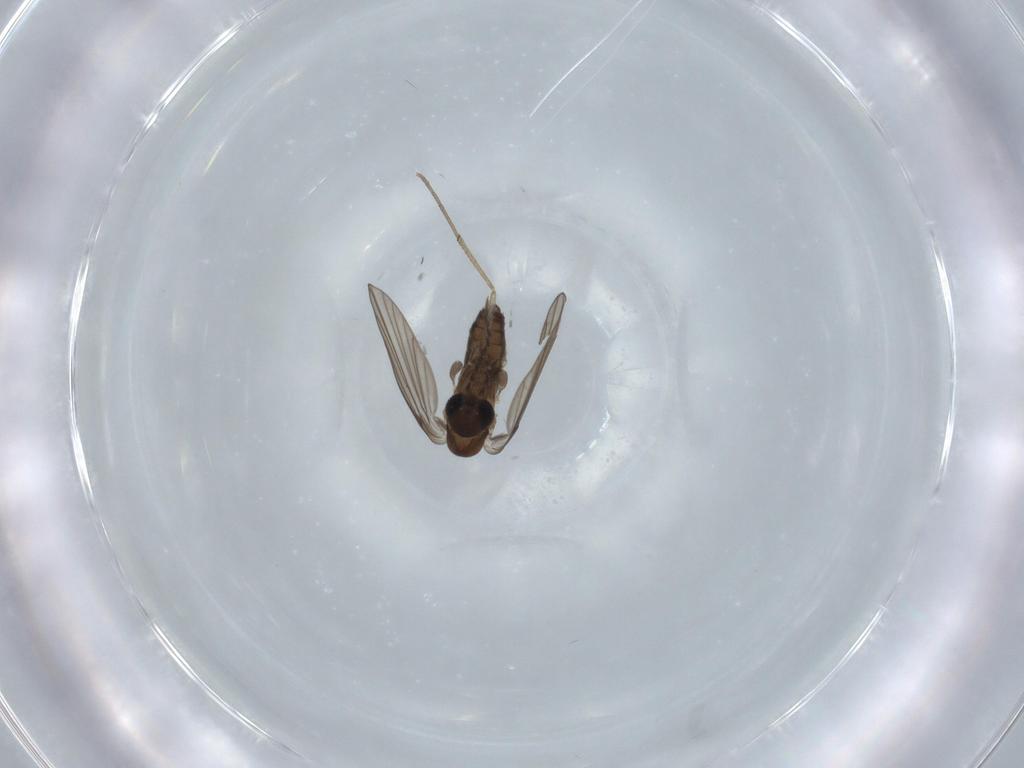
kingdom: Animalia
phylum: Arthropoda
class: Insecta
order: Diptera
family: Psychodidae
